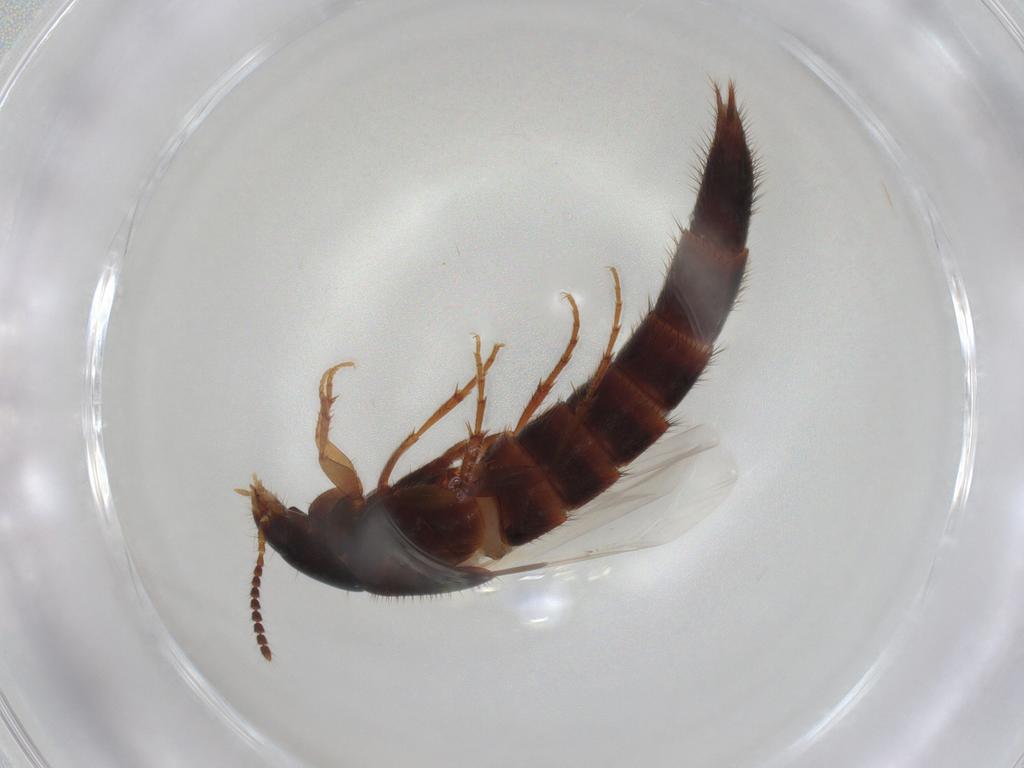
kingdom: Animalia
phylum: Arthropoda
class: Insecta
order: Coleoptera
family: Staphylinidae
